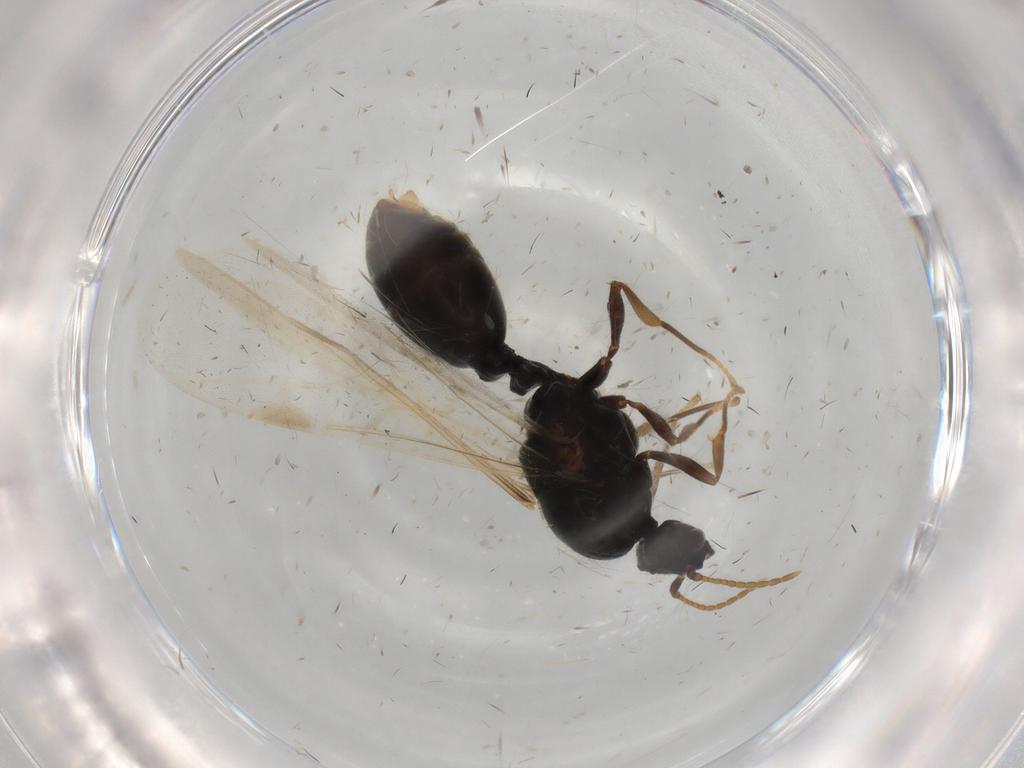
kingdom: Animalia
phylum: Arthropoda
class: Insecta
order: Hymenoptera
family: Formicidae
